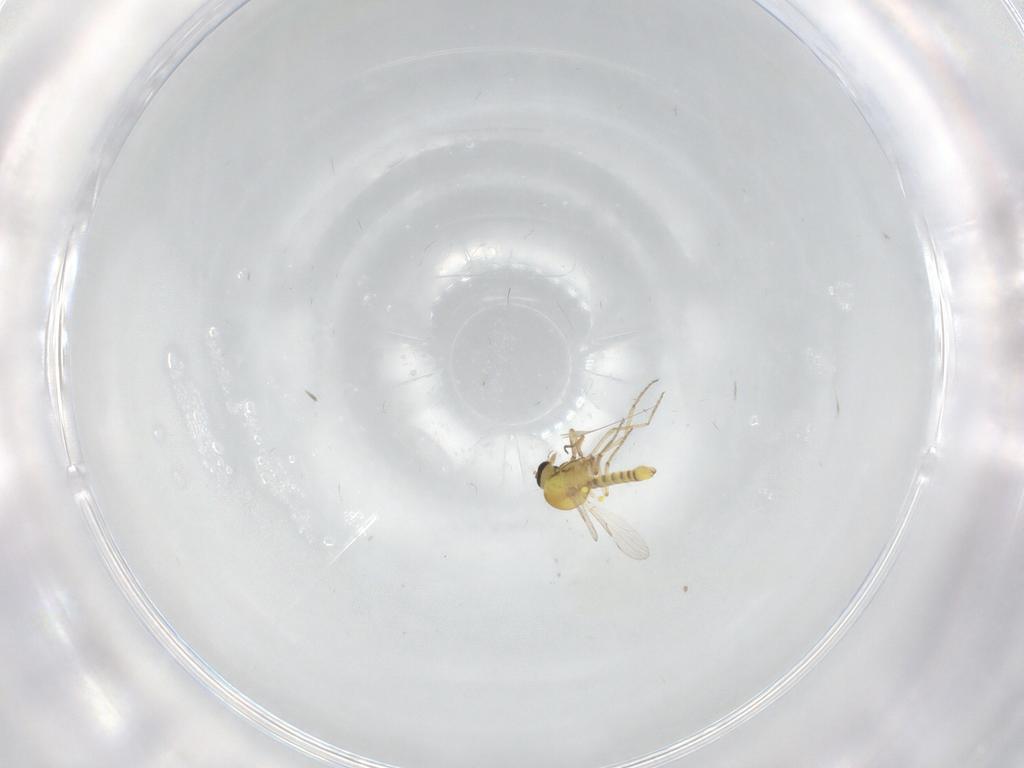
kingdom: Animalia
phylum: Arthropoda
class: Insecta
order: Diptera
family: Ceratopogonidae
